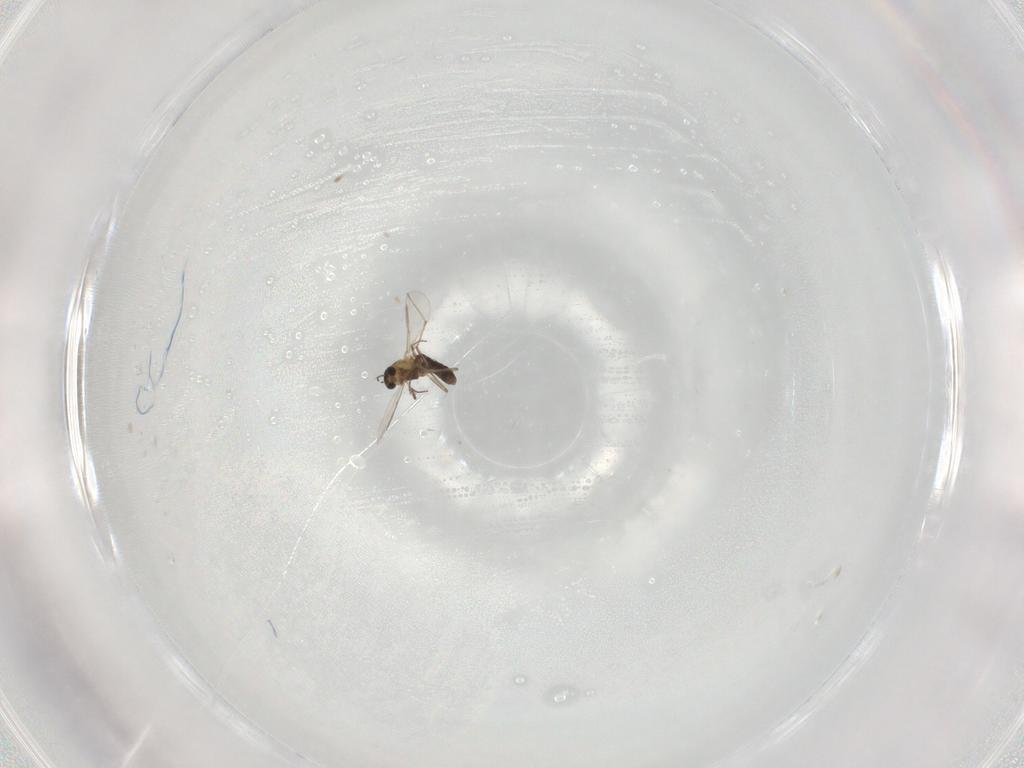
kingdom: Animalia
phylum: Arthropoda
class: Insecta
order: Diptera
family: Chironomidae
